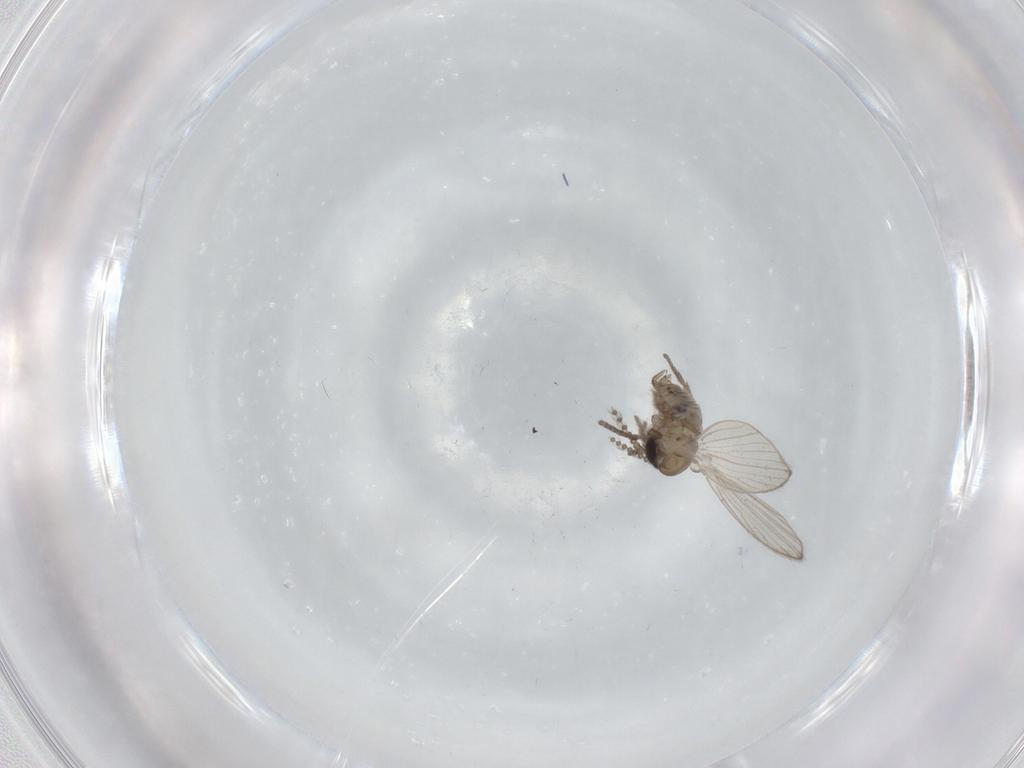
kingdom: Animalia
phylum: Arthropoda
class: Insecta
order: Diptera
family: Psychodidae
